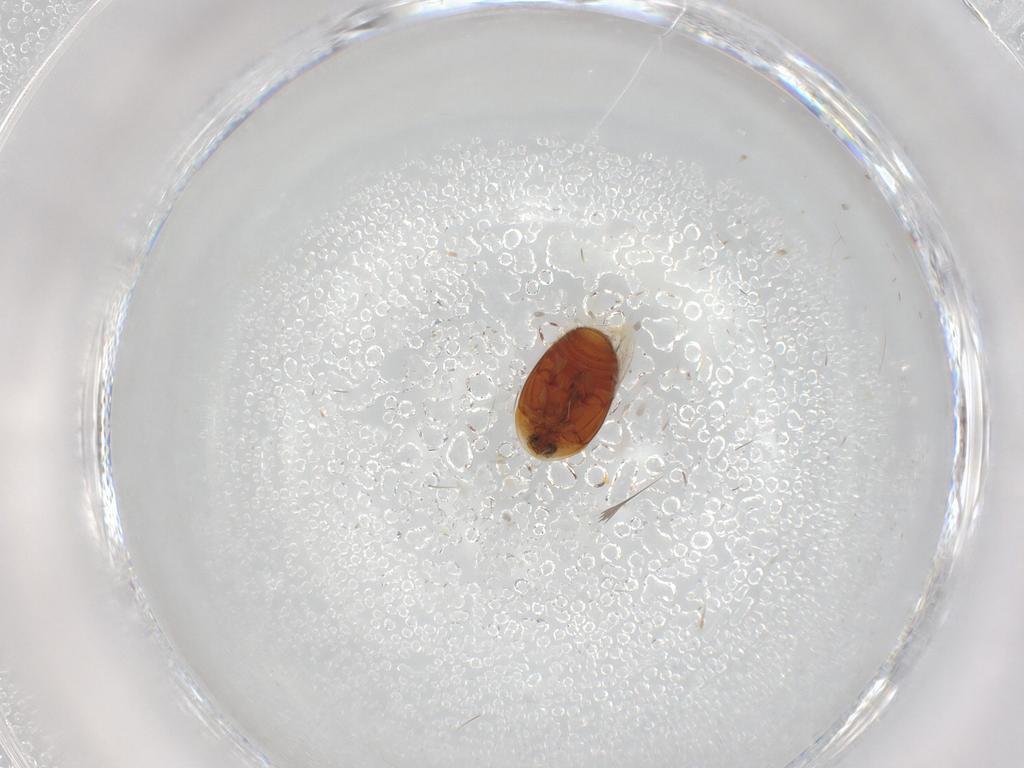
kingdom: Animalia
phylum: Arthropoda
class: Insecta
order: Coleoptera
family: Corylophidae
